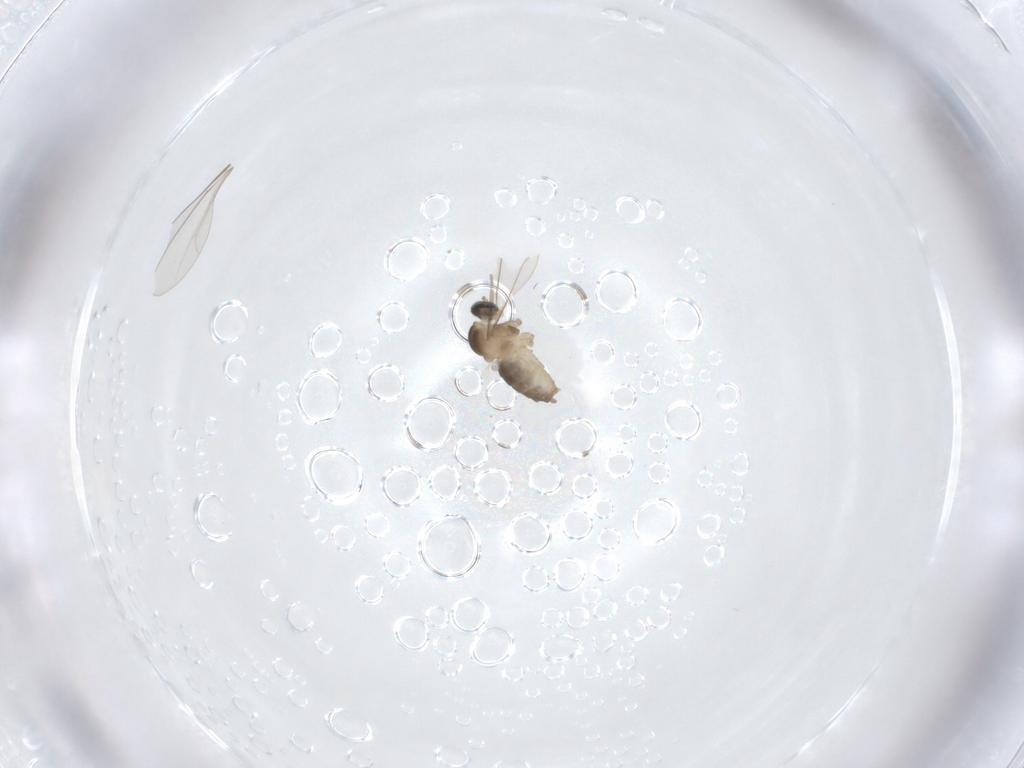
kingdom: Animalia
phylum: Arthropoda
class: Insecta
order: Diptera
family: Cecidomyiidae
